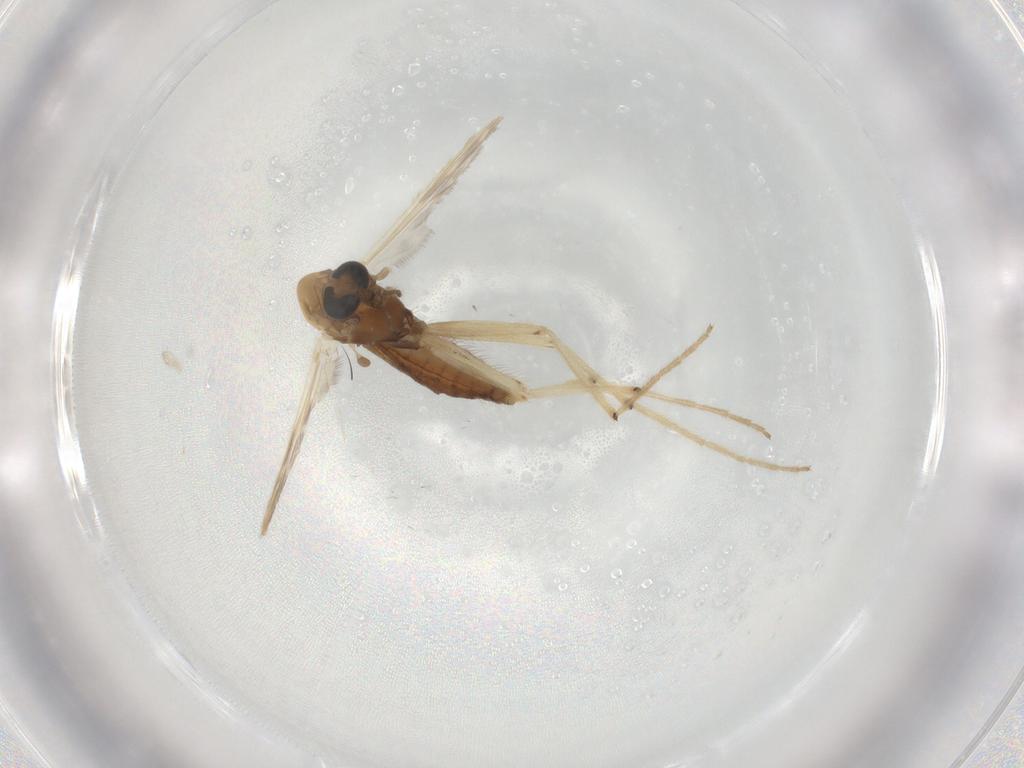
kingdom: Animalia
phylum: Arthropoda
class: Insecta
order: Diptera
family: Chironomidae
